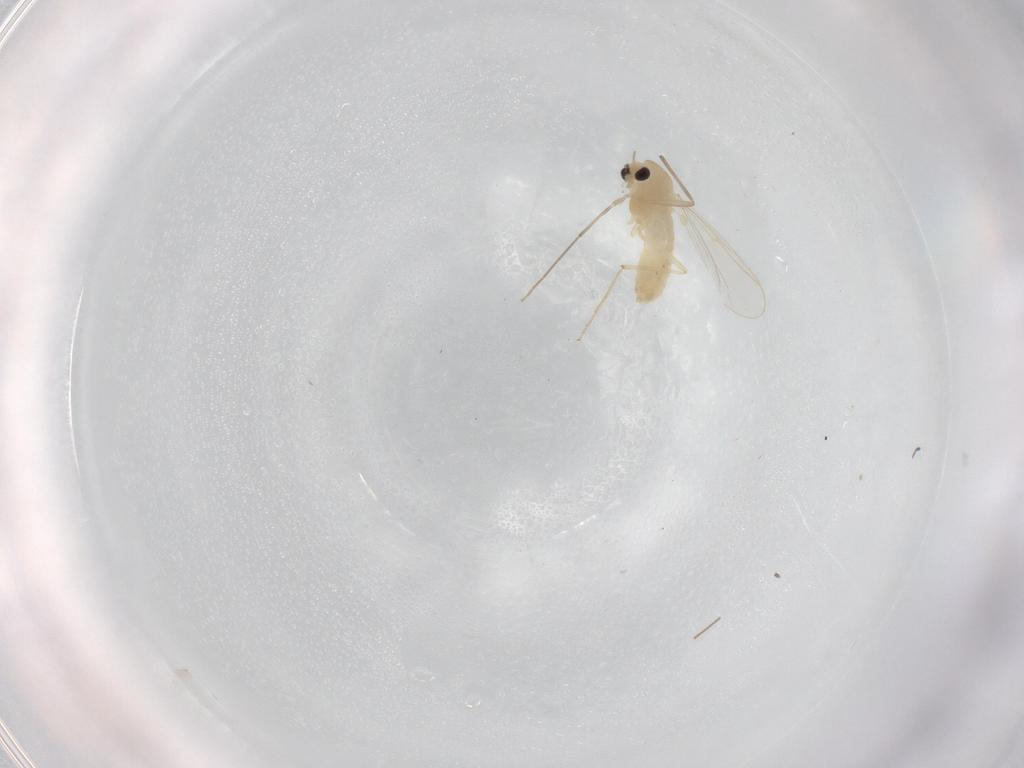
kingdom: Animalia
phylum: Arthropoda
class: Insecta
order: Diptera
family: Chironomidae
